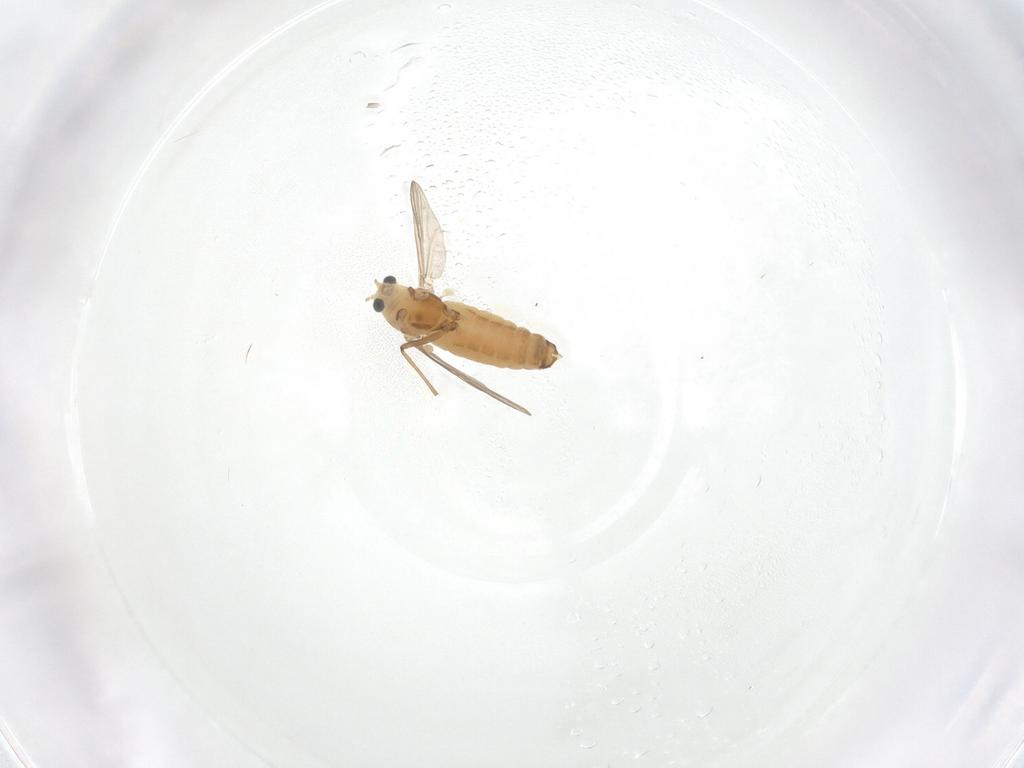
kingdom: Animalia
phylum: Arthropoda
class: Insecta
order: Diptera
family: Chironomidae
